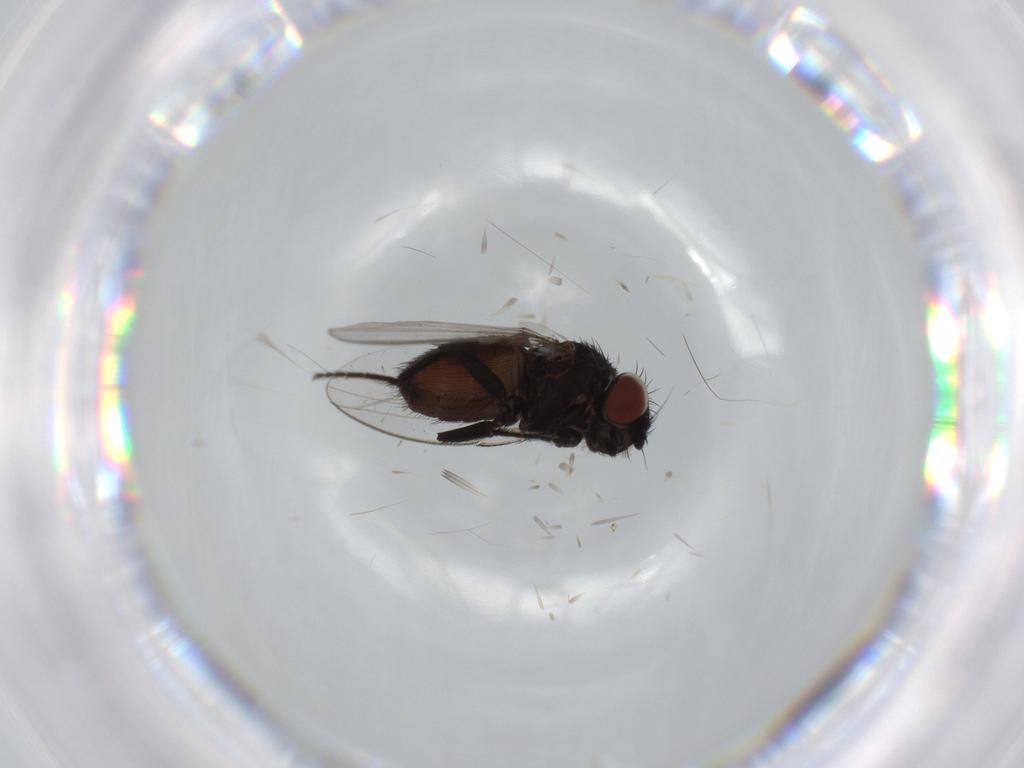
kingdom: Animalia
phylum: Arthropoda
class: Insecta
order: Diptera
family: Milichiidae
